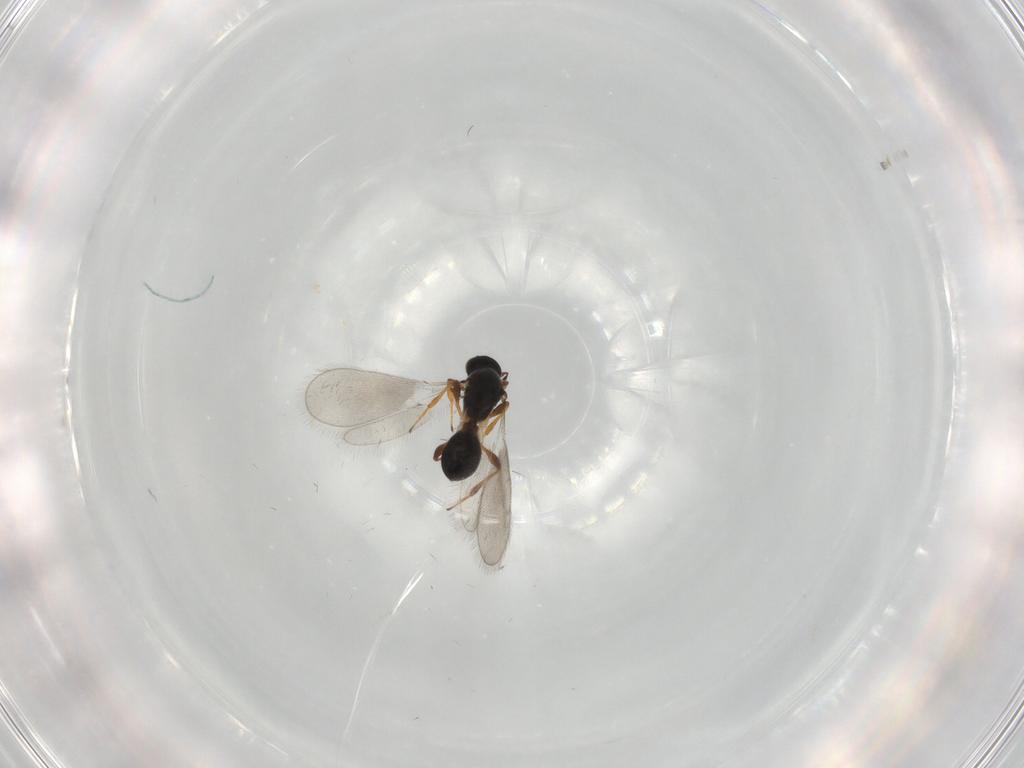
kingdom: Animalia
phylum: Arthropoda
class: Insecta
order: Hymenoptera
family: Platygastridae
